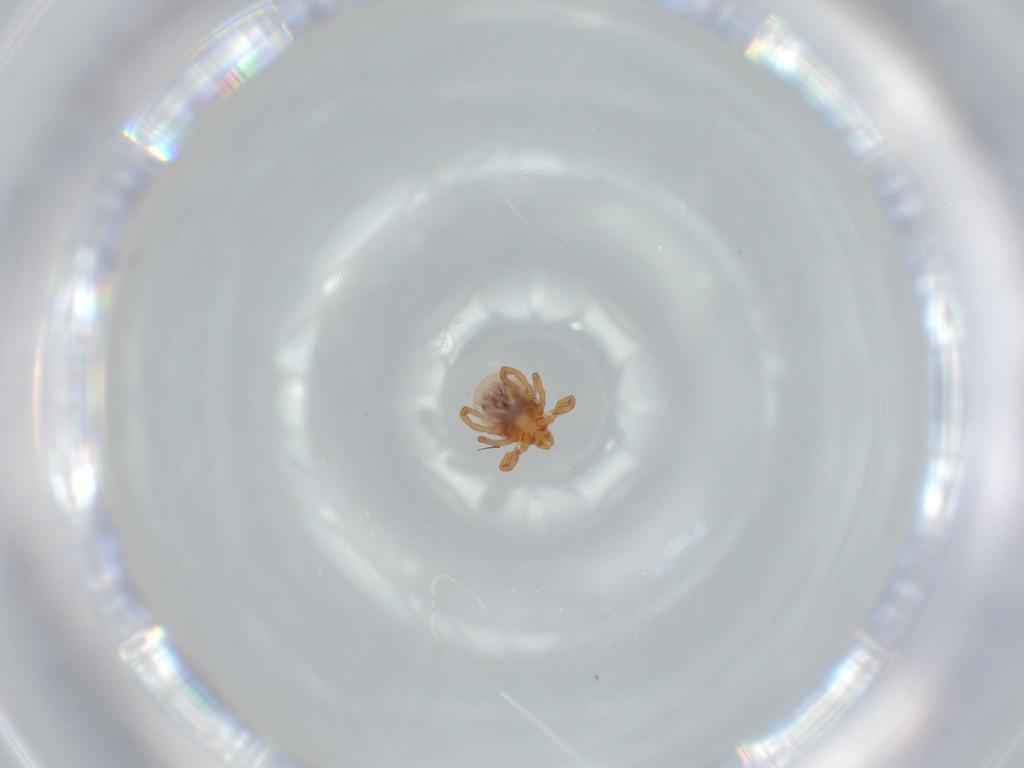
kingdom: Animalia
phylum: Arthropoda
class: Arachnida
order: Ixodida
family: Ixodidae
